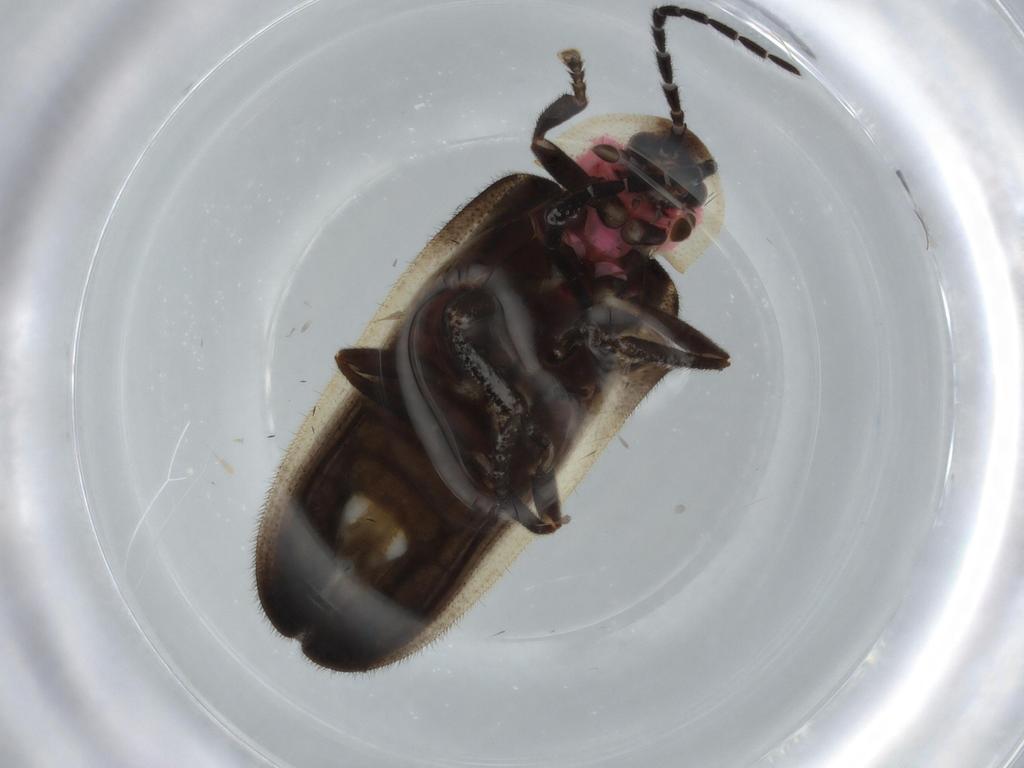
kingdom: Animalia
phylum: Arthropoda
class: Insecta
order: Coleoptera
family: Lampyridae
